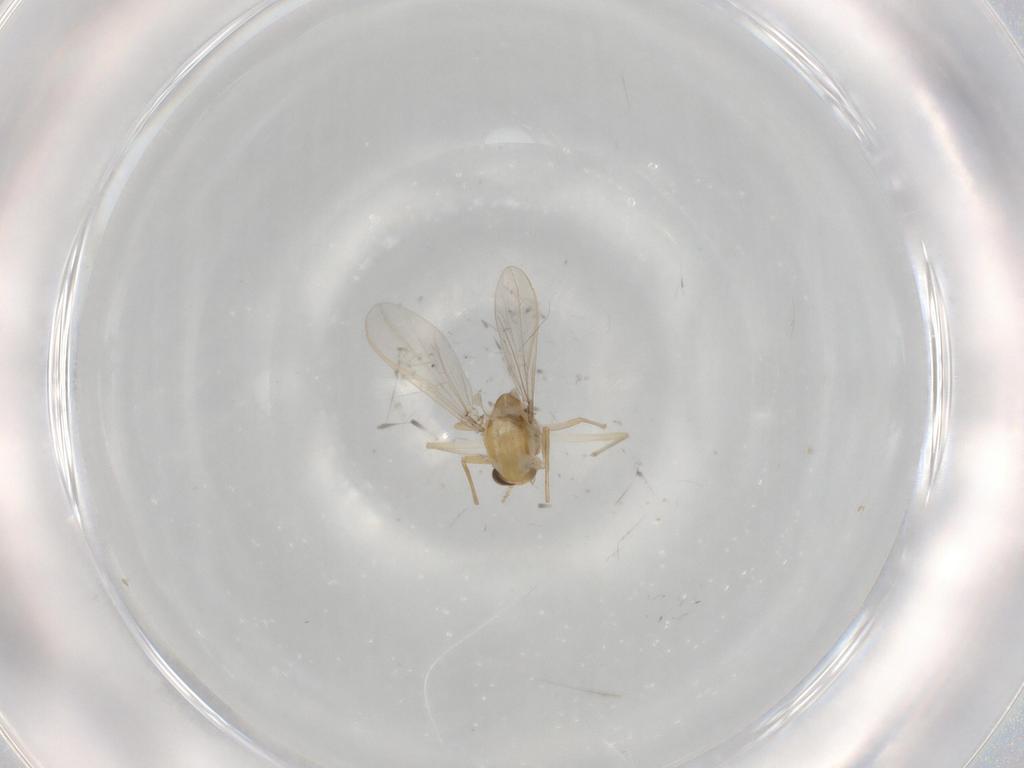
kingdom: Animalia
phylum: Arthropoda
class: Insecta
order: Diptera
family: Chironomidae
